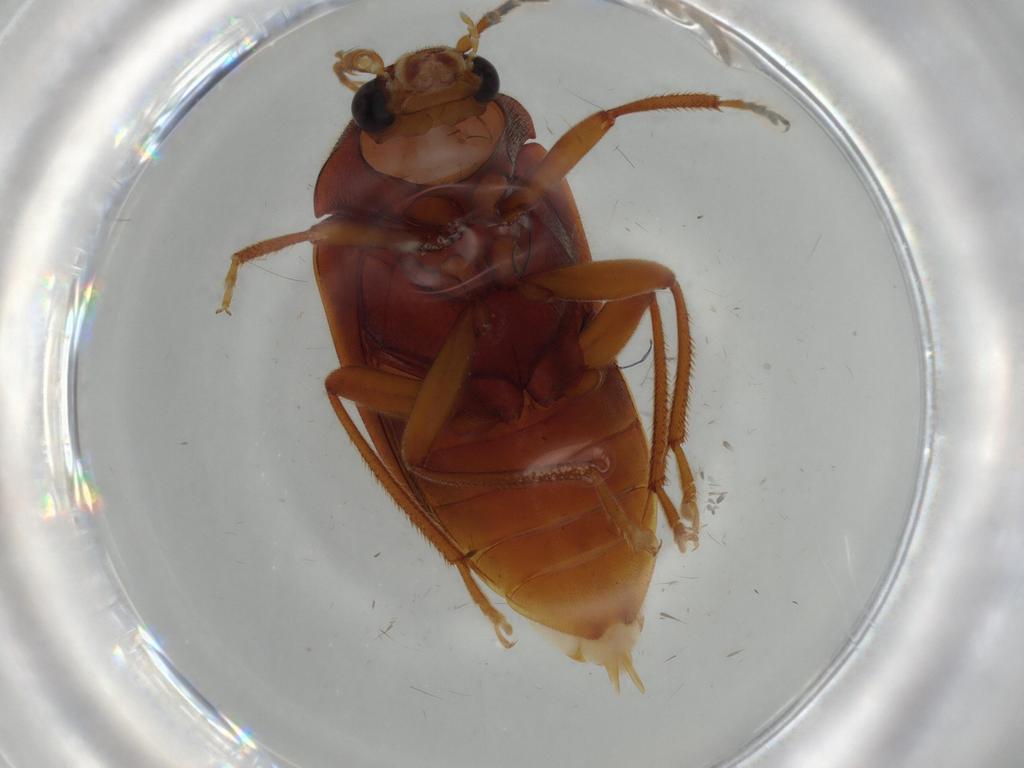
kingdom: Animalia
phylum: Arthropoda
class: Insecta
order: Coleoptera
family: Ptilodactylidae
